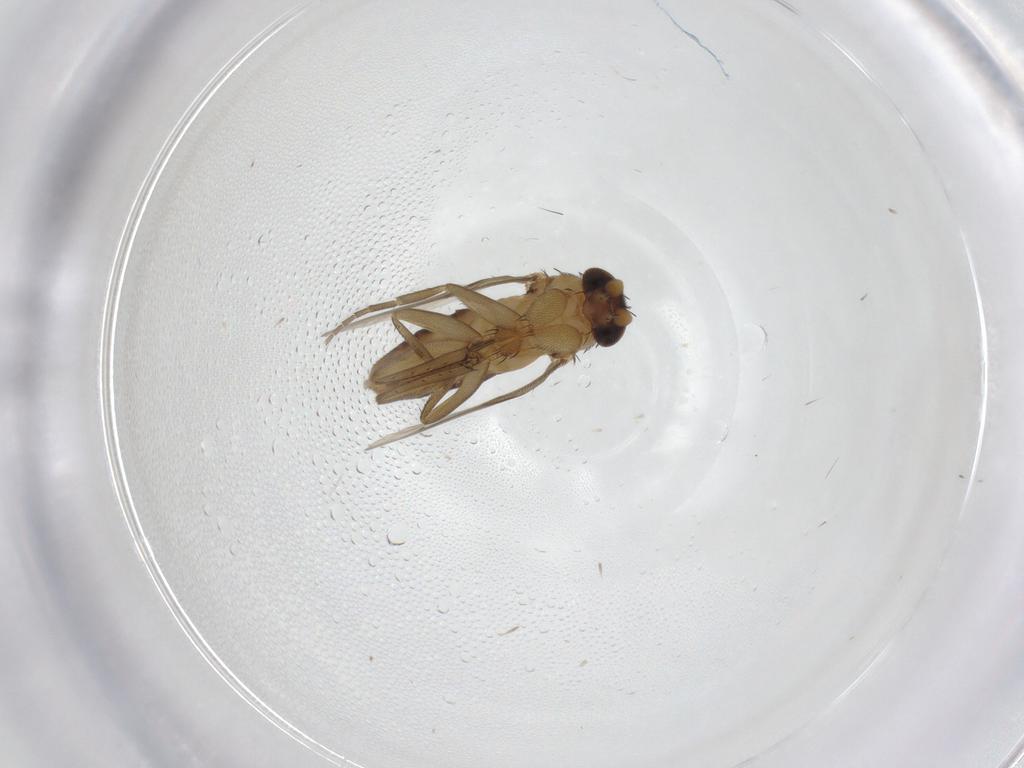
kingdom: Animalia
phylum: Arthropoda
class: Insecta
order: Diptera
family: Phoridae
